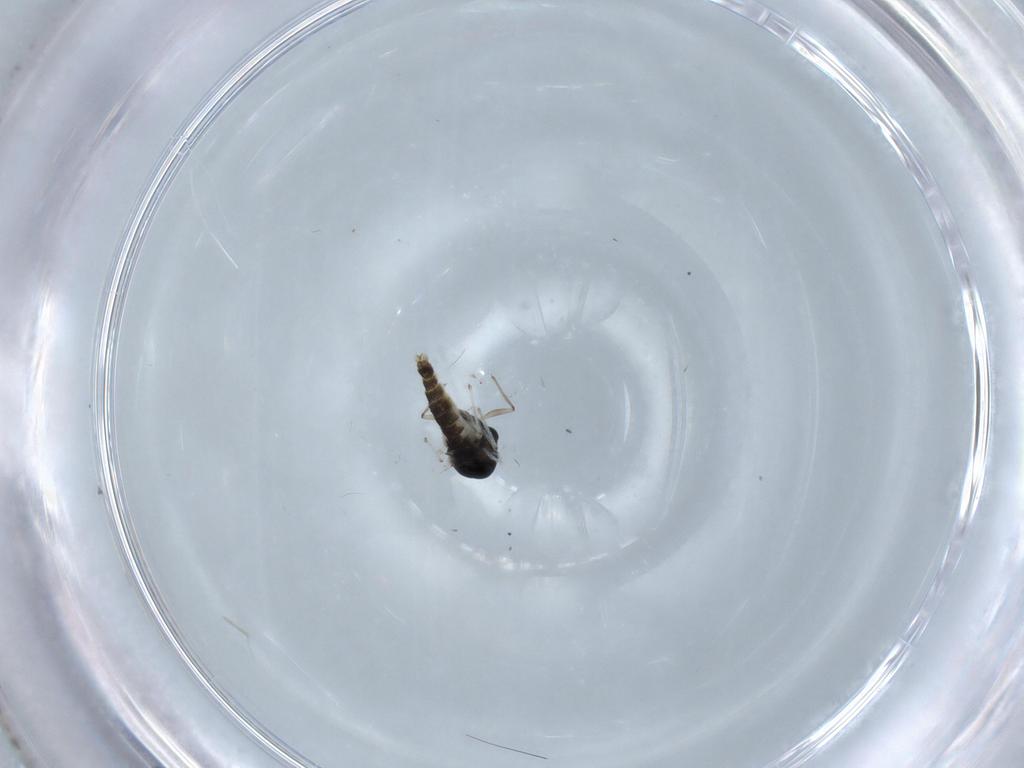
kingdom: Animalia
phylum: Arthropoda
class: Insecta
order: Diptera
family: Chironomidae
